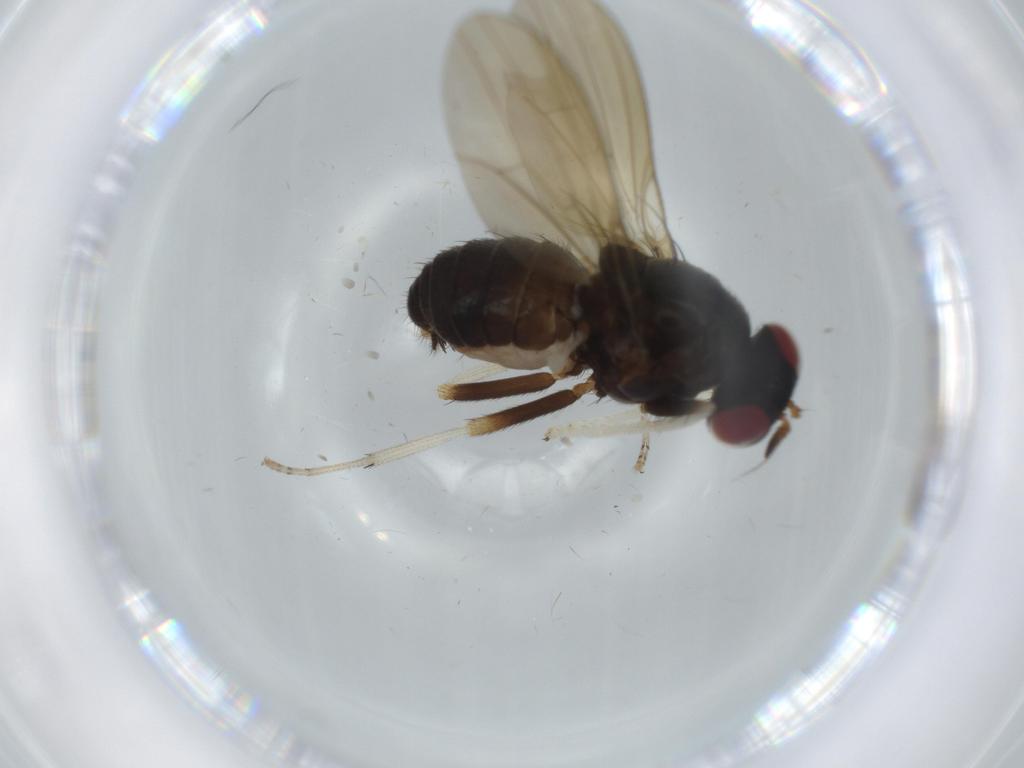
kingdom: Animalia
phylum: Arthropoda
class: Insecta
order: Diptera
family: Lauxaniidae
